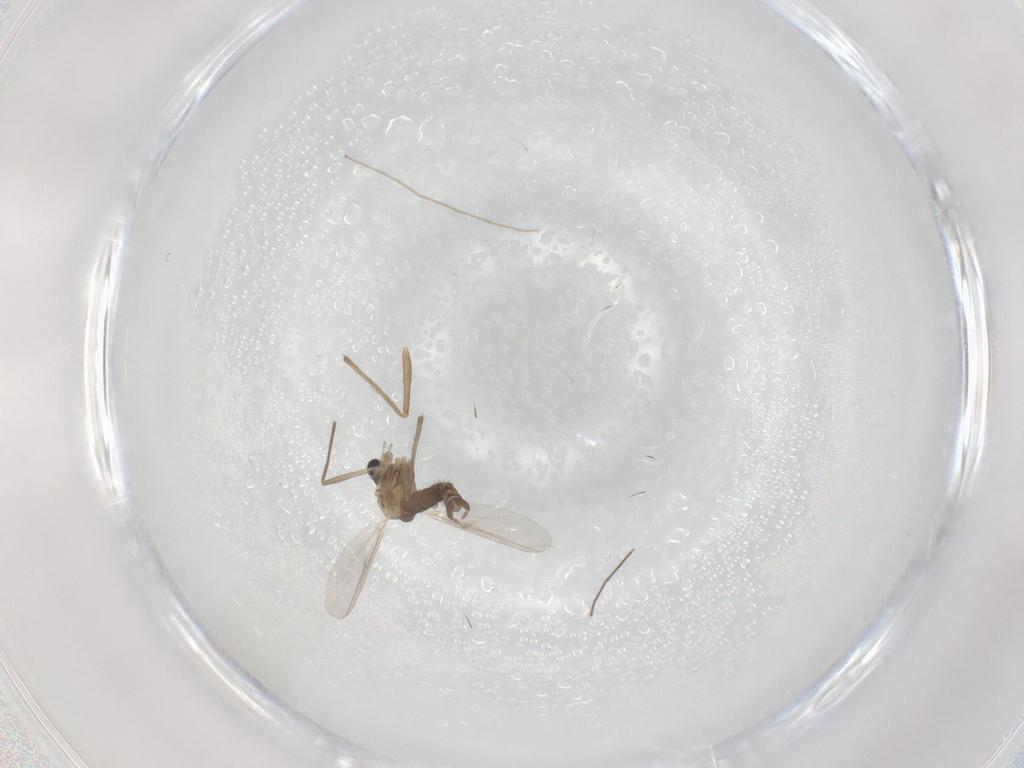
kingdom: Animalia
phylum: Arthropoda
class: Insecta
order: Diptera
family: Chironomidae
